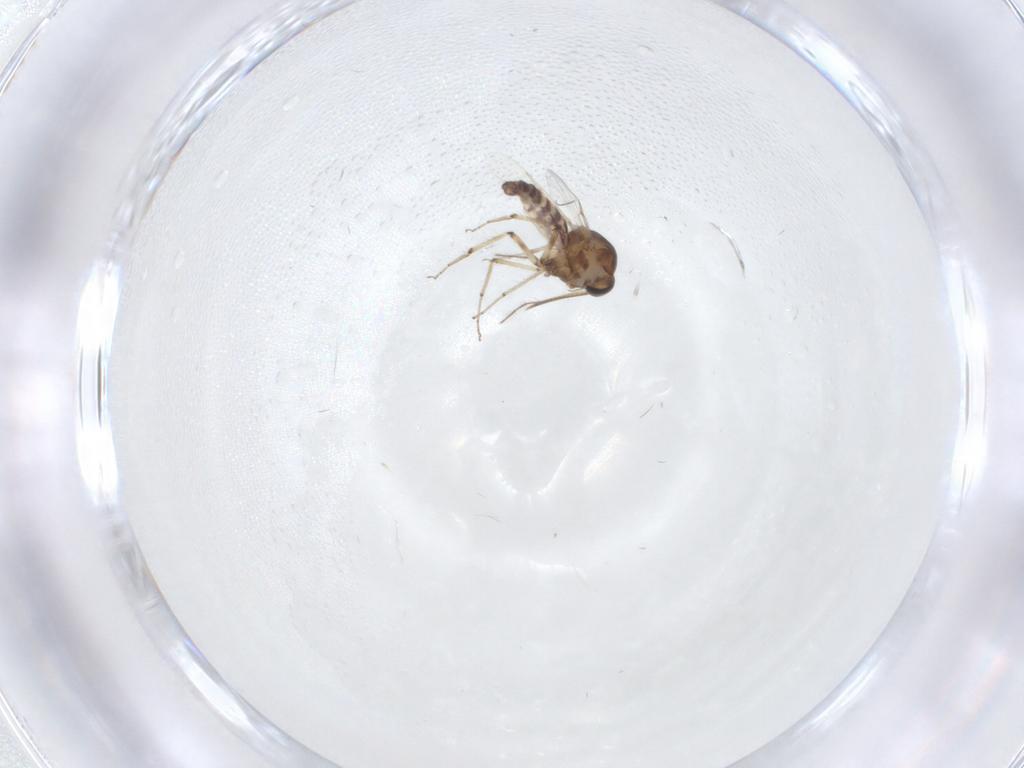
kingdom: Animalia
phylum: Arthropoda
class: Insecta
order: Diptera
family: Ceratopogonidae
